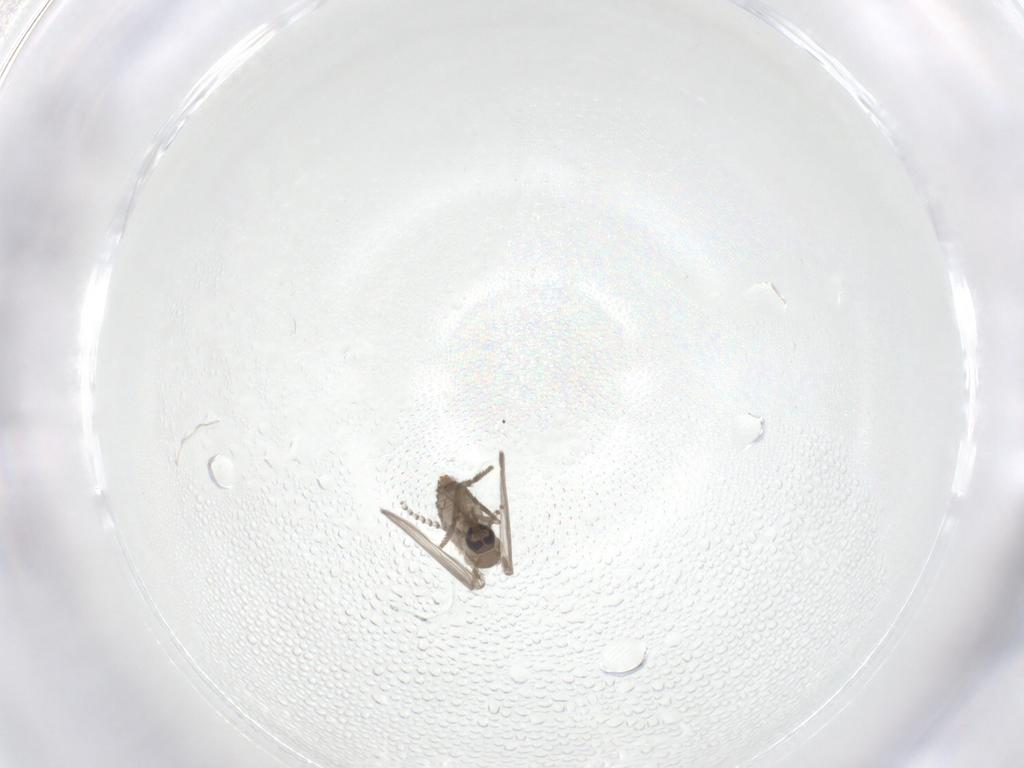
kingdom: Animalia
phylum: Arthropoda
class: Insecta
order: Diptera
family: Psychodidae
